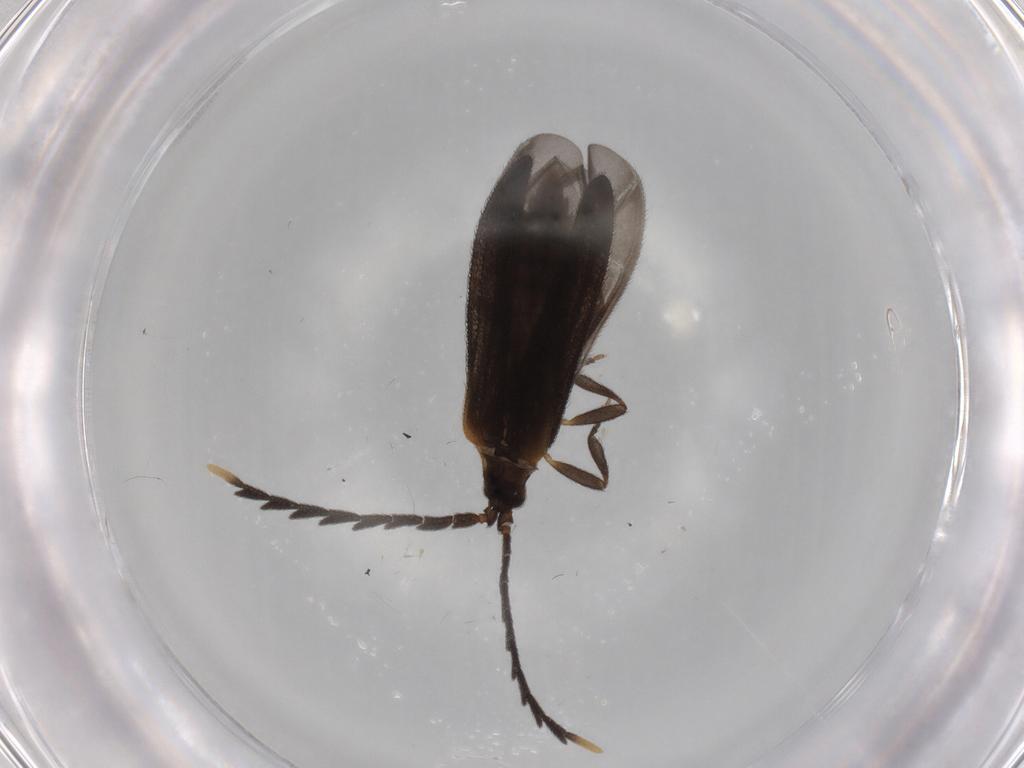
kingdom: Animalia
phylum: Arthropoda
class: Insecta
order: Coleoptera
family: Lycidae
